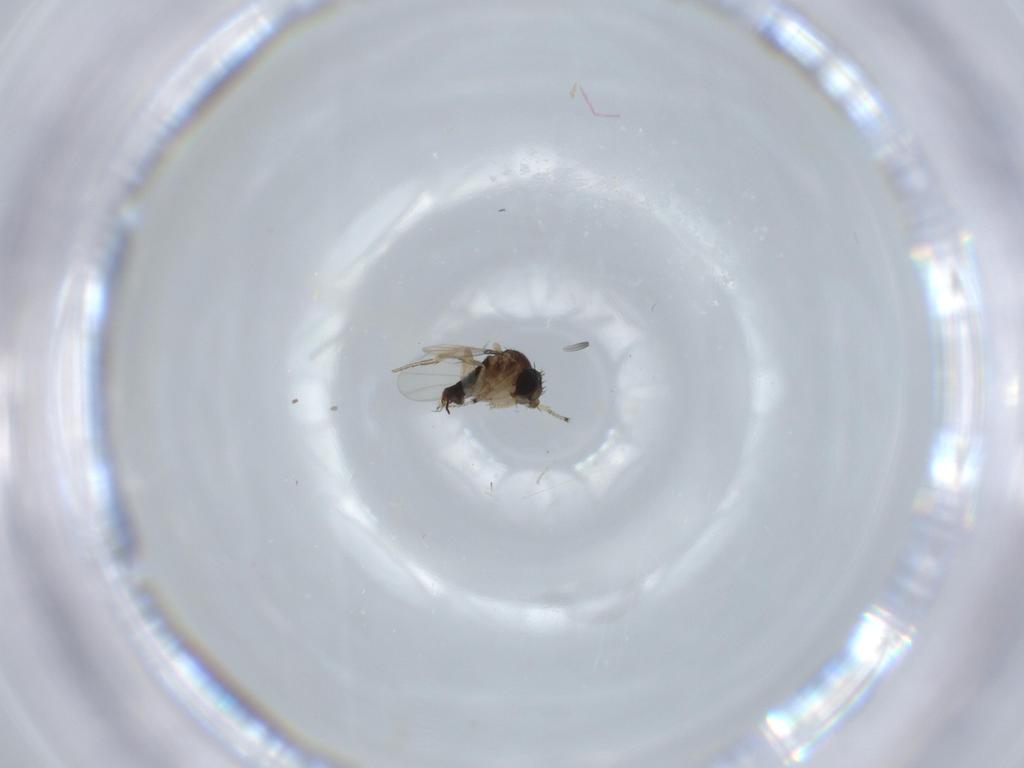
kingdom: Animalia
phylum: Arthropoda
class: Insecta
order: Diptera
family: Phoridae
